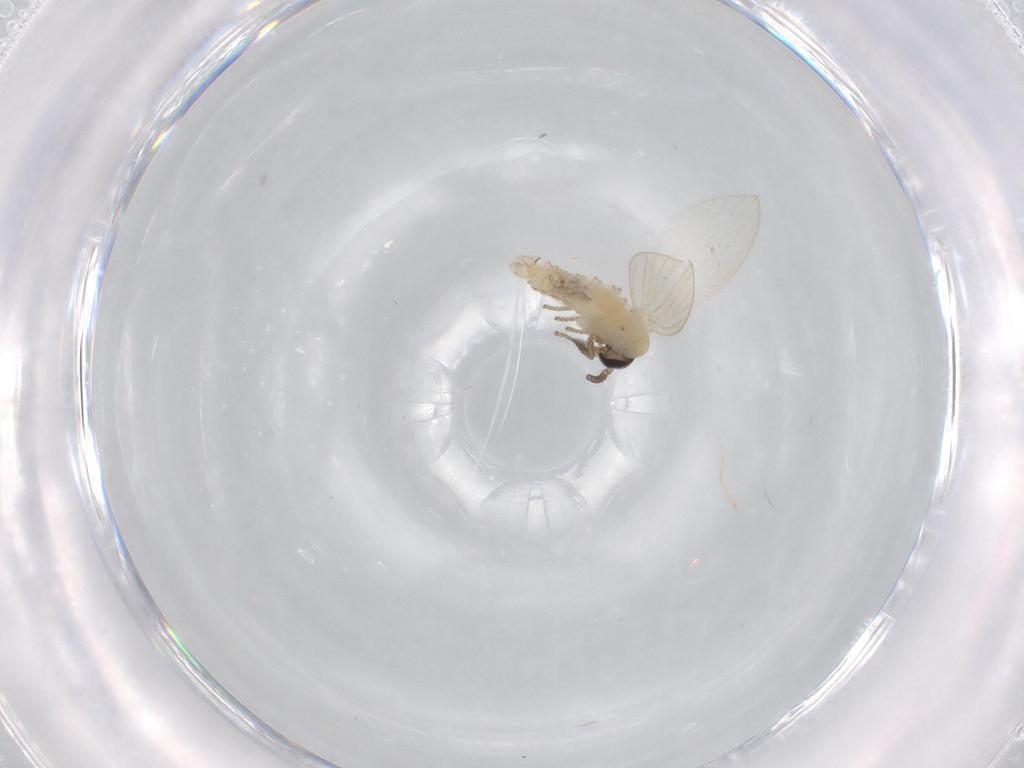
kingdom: Animalia
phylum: Arthropoda
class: Insecta
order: Diptera
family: Psychodidae
